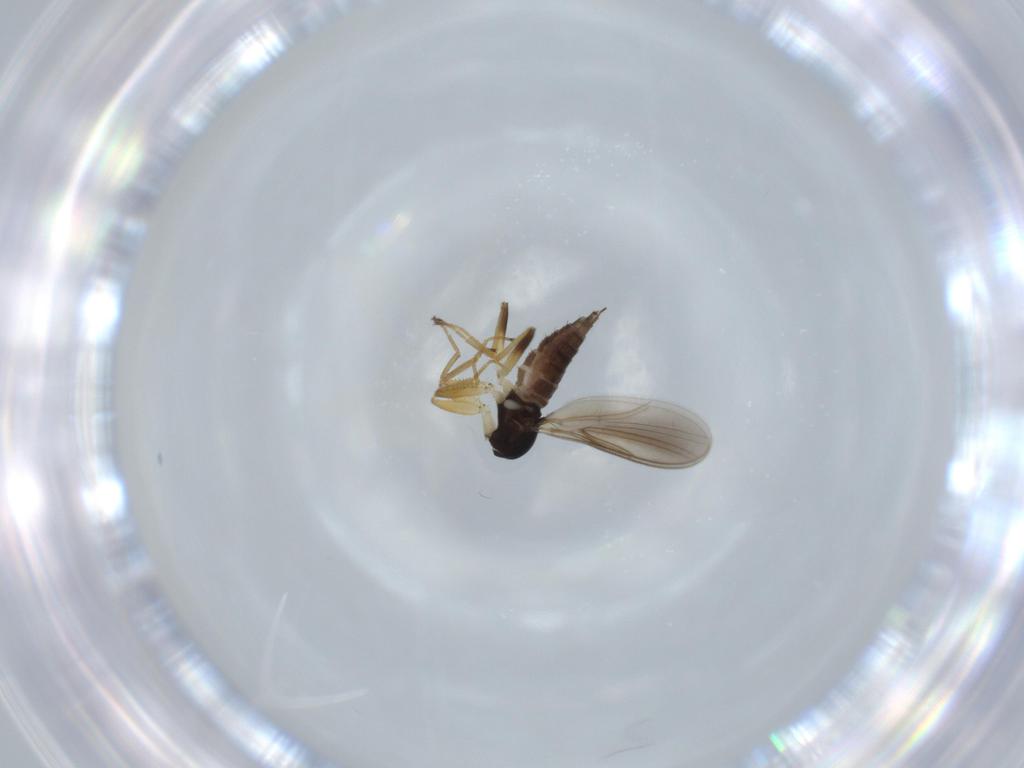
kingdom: Animalia
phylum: Arthropoda
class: Insecta
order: Diptera
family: Hybotidae
